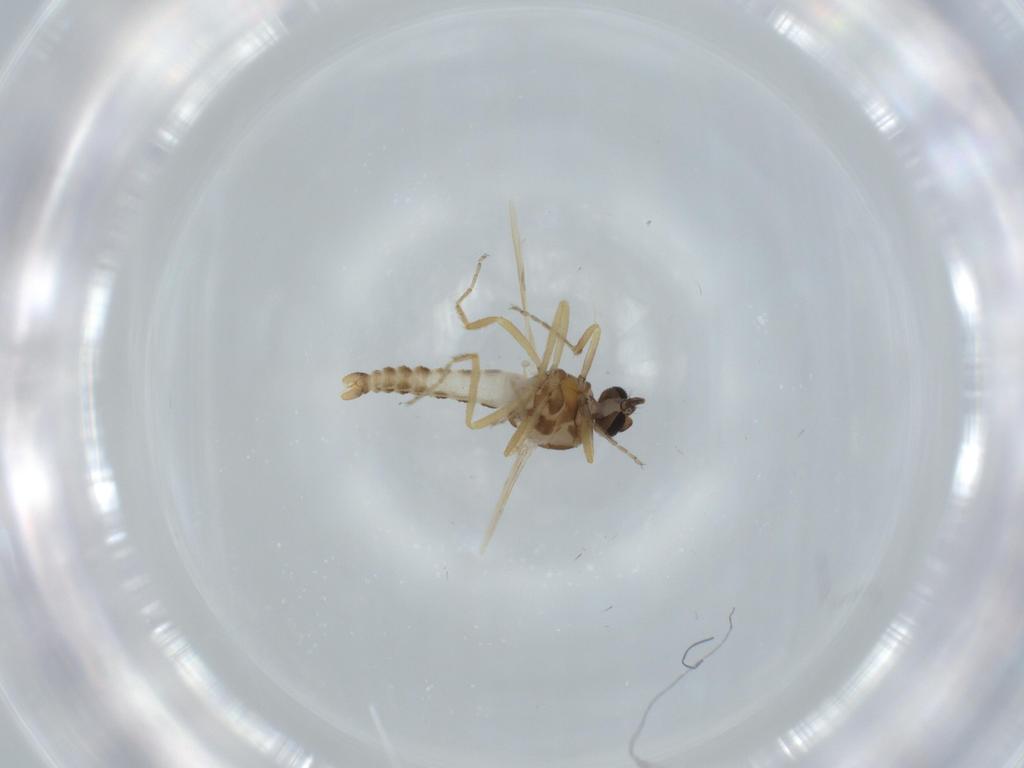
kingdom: Animalia
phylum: Arthropoda
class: Insecta
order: Diptera
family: Ceratopogonidae
